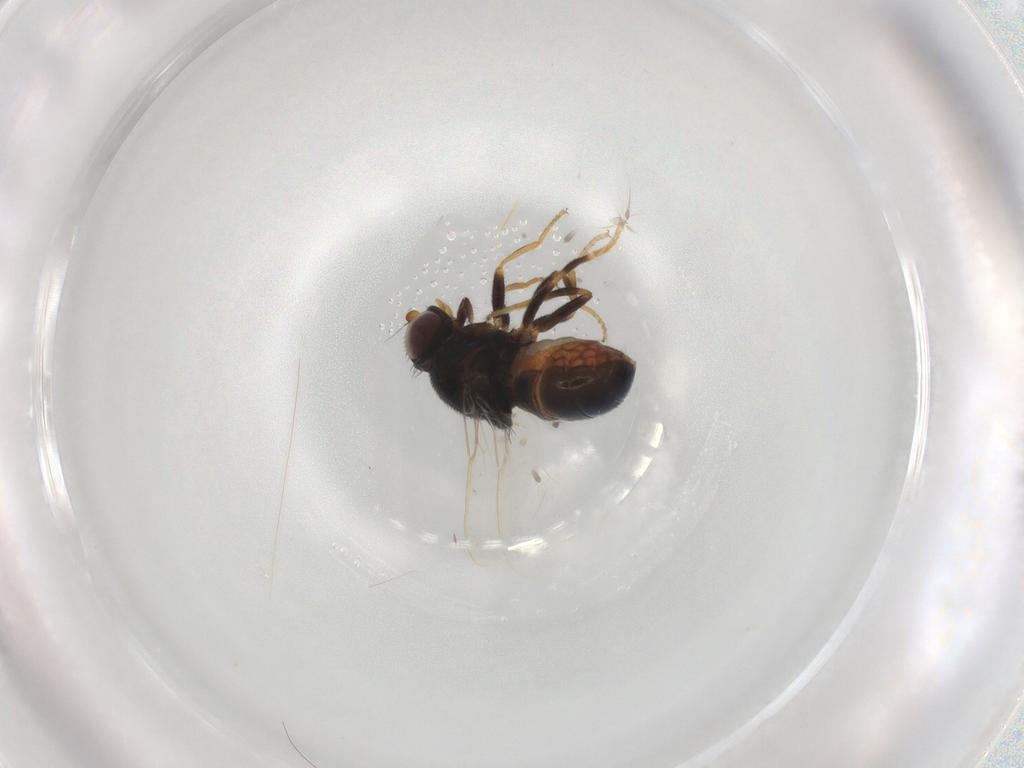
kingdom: Animalia
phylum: Arthropoda
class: Insecta
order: Diptera
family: Chloropidae
